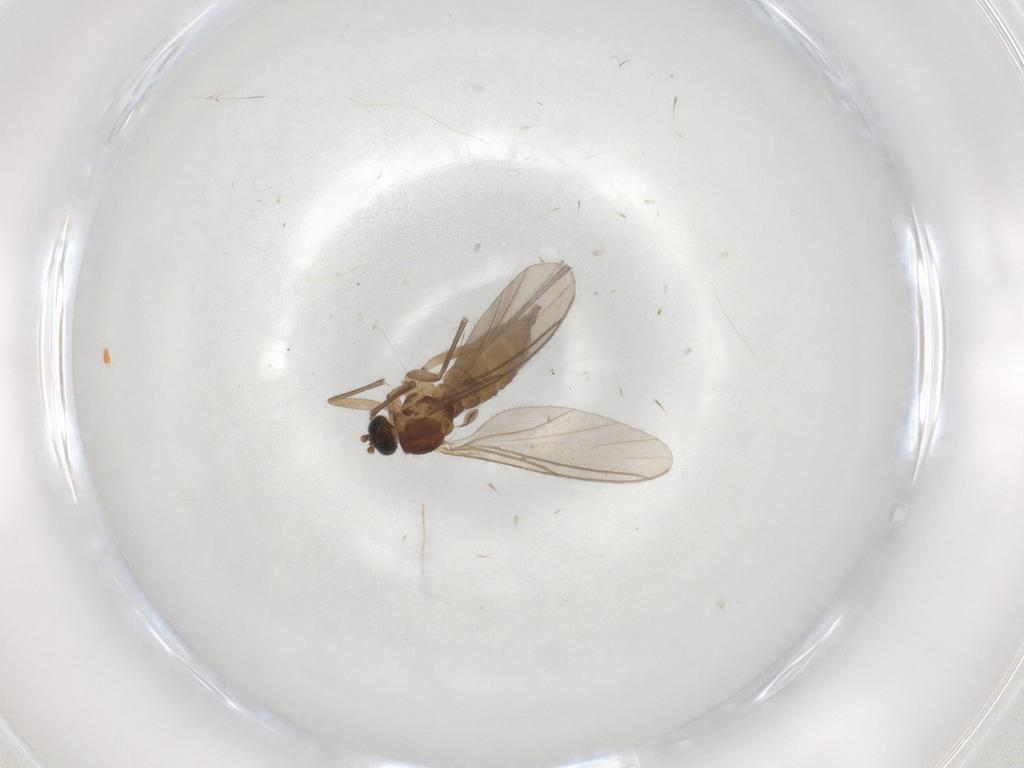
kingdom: Animalia
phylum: Arthropoda
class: Insecta
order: Diptera
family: Sciaridae
